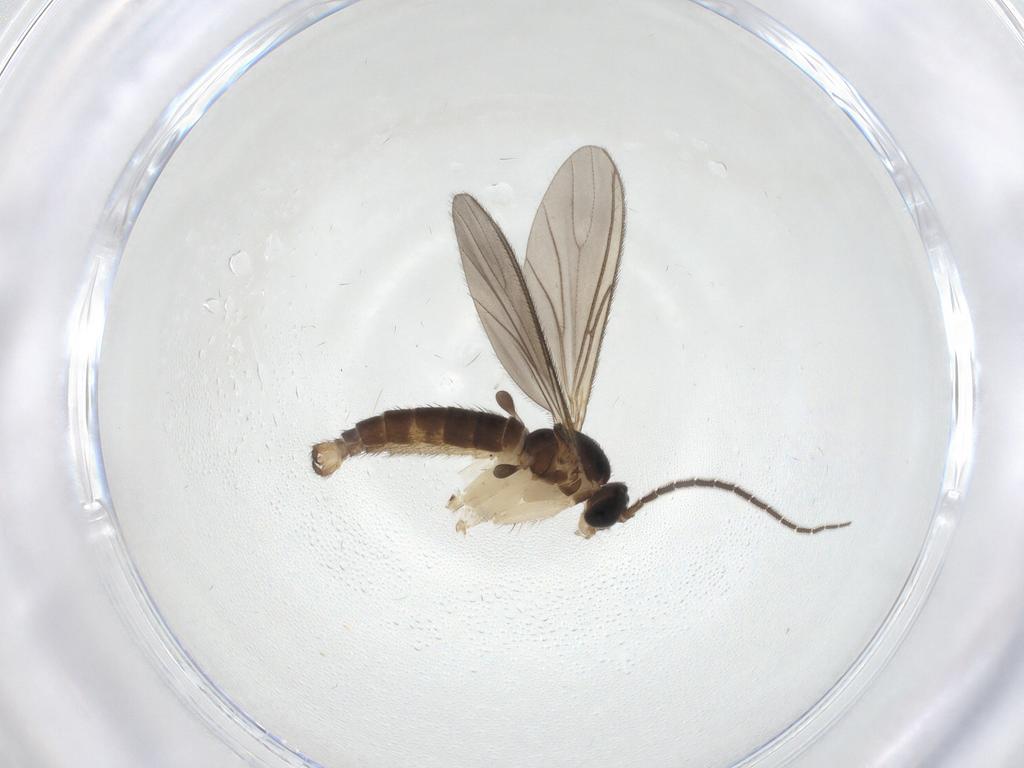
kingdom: Animalia
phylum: Arthropoda
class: Insecta
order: Diptera
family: Sciaridae
